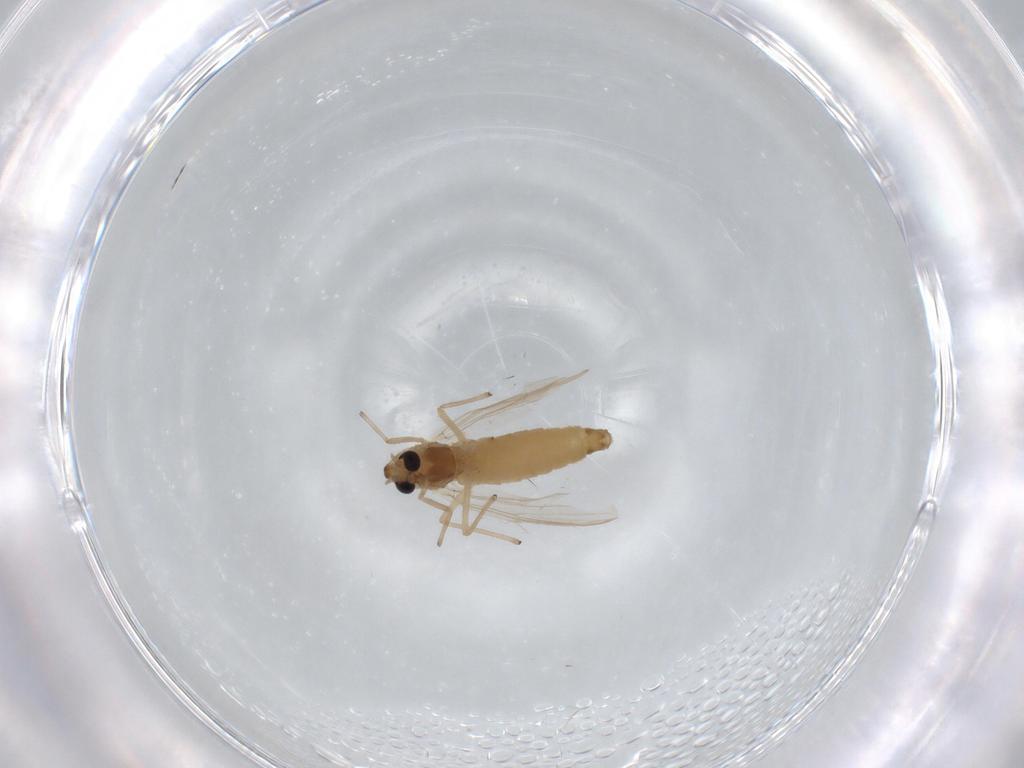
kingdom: Animalia
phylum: Arthropoda
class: Insecta
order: Diptera
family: Chironomidae
